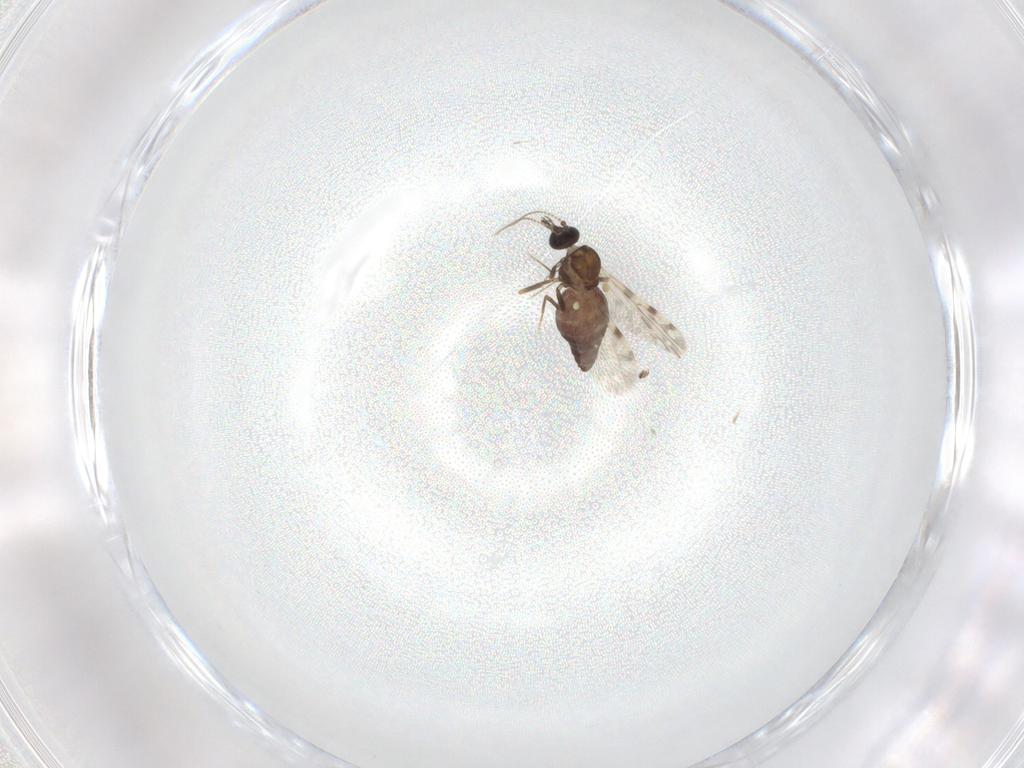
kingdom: Animalia
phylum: Arthropoda
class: Insecta
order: Diptera
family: Ceratopogonidae
